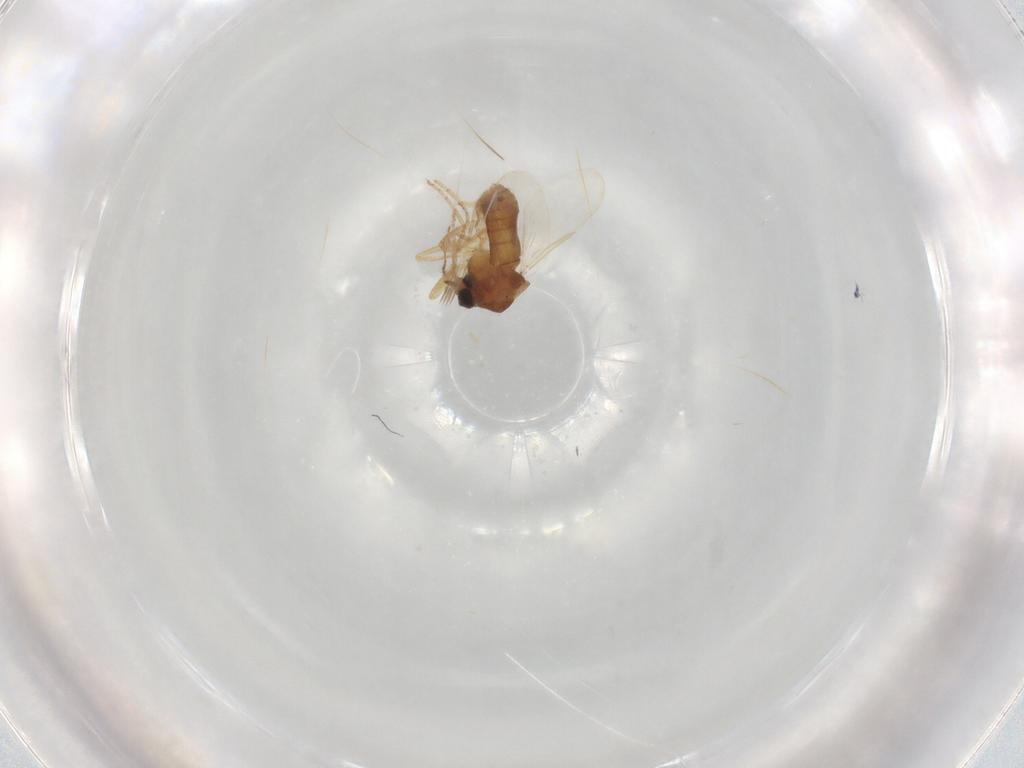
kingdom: Animalia
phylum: Arthropoda
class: Insecta
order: Diptera
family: Calliphoridae
